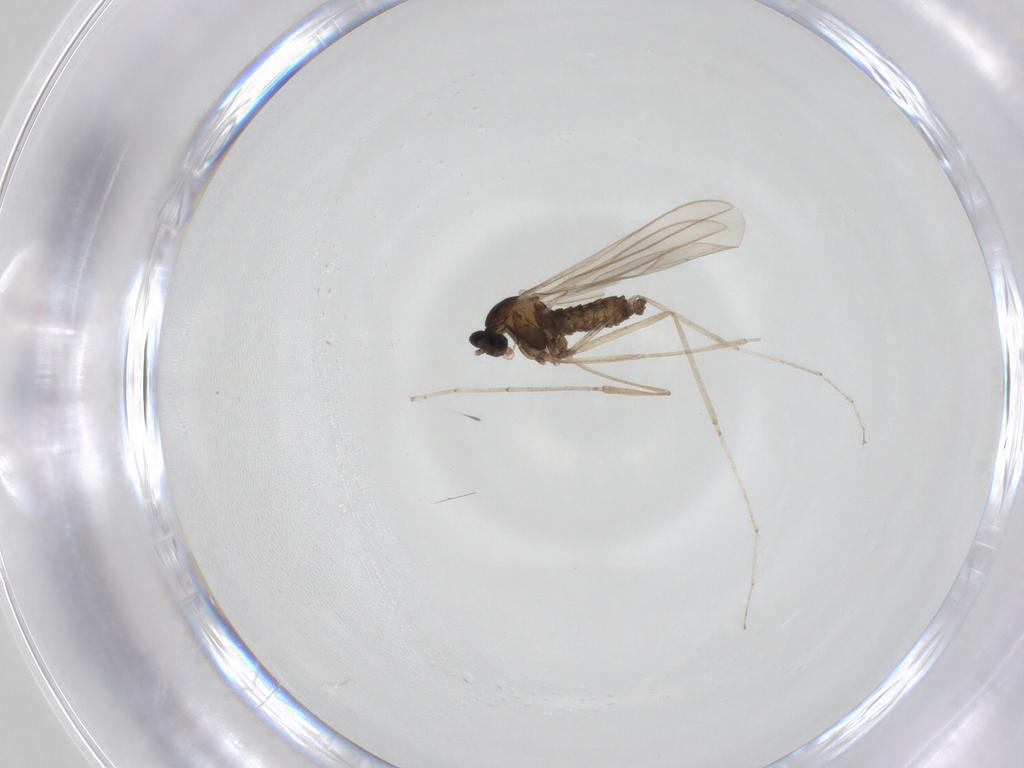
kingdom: Animalia
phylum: Arthropoda
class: Insecta
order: Diptera
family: Cecidomyiidae
